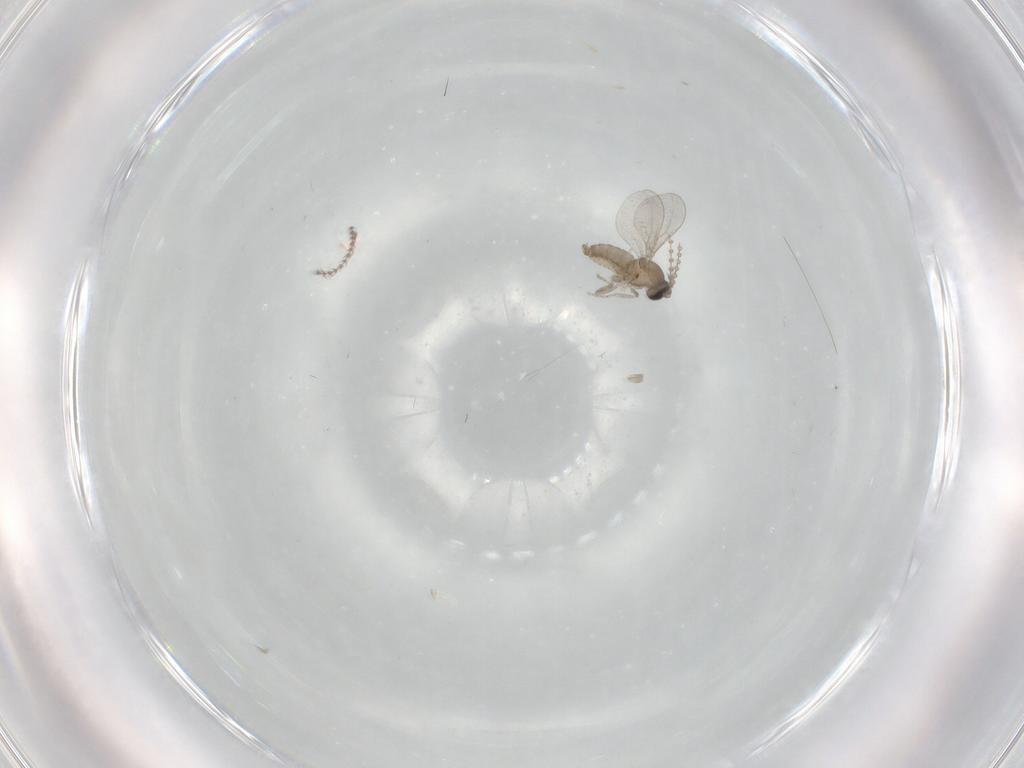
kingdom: Animalia
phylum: Arthropoda
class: Insecta
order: Diptera
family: Cecidomyiidae
